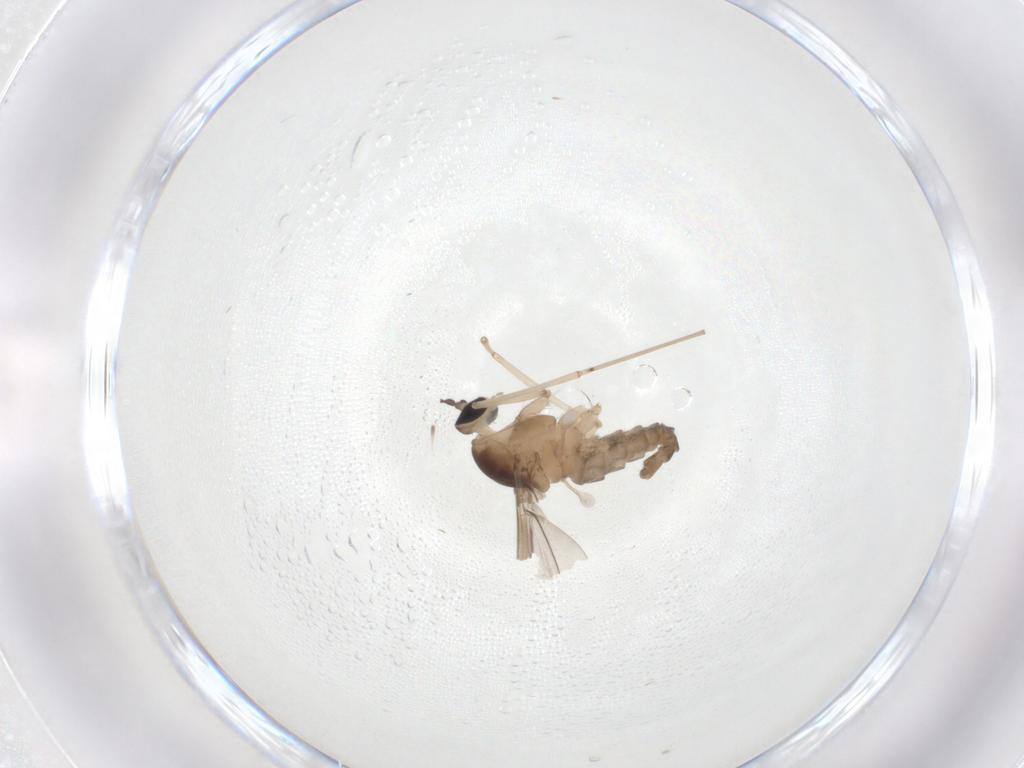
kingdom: Animalia
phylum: Arthropoda
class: Insecta
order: Diptera
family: Cecidomyiidae
